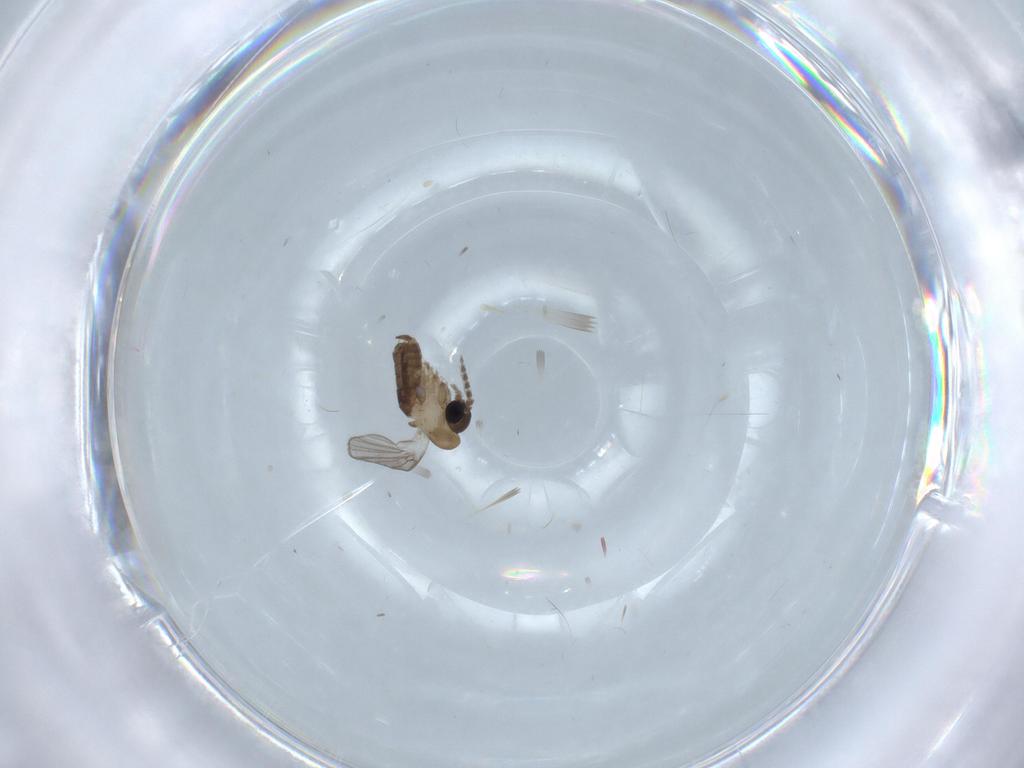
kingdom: Animalia
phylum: Arthropoda
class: Insecta
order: Diptera
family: Psychodidae
